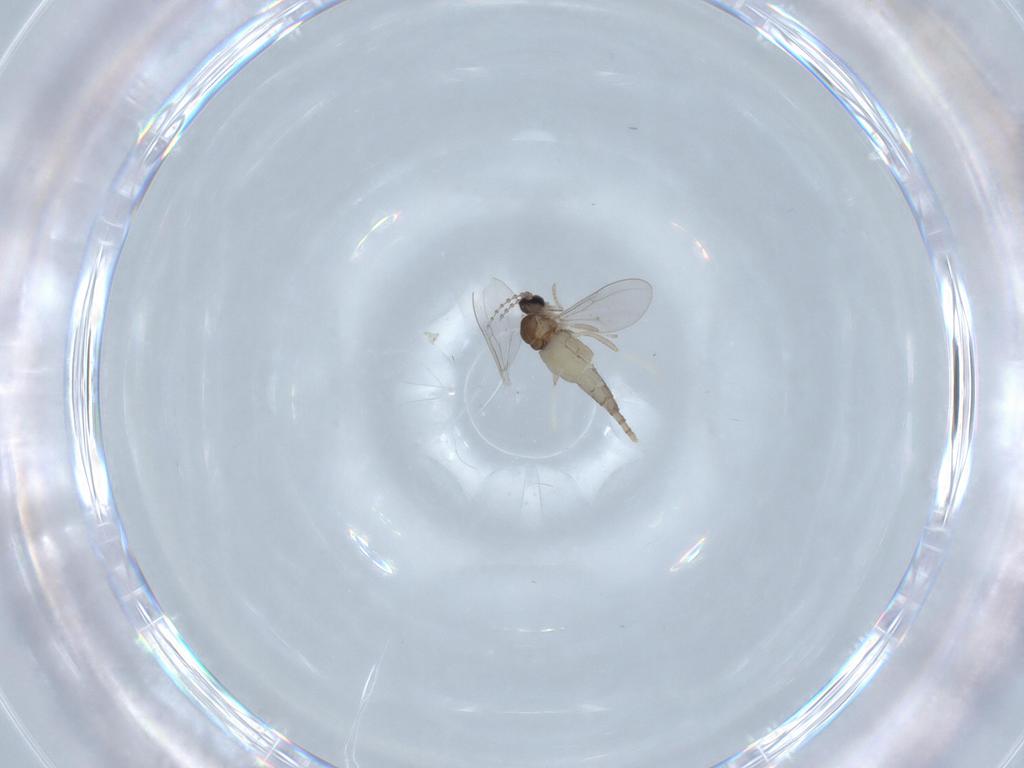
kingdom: Animalia
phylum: Arthropoda
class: Insecta
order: Diptera
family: Cecidomyiidae
